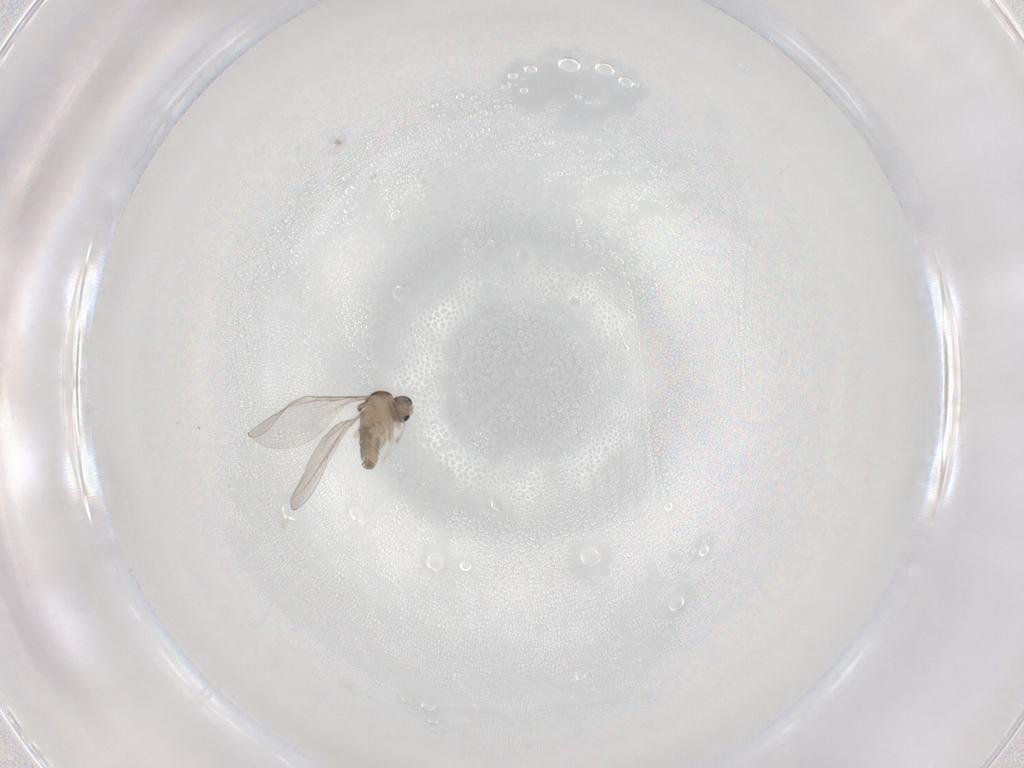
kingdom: Animalia
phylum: Arthropoda
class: Insecta
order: Diptera
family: Cecidomyiidae
